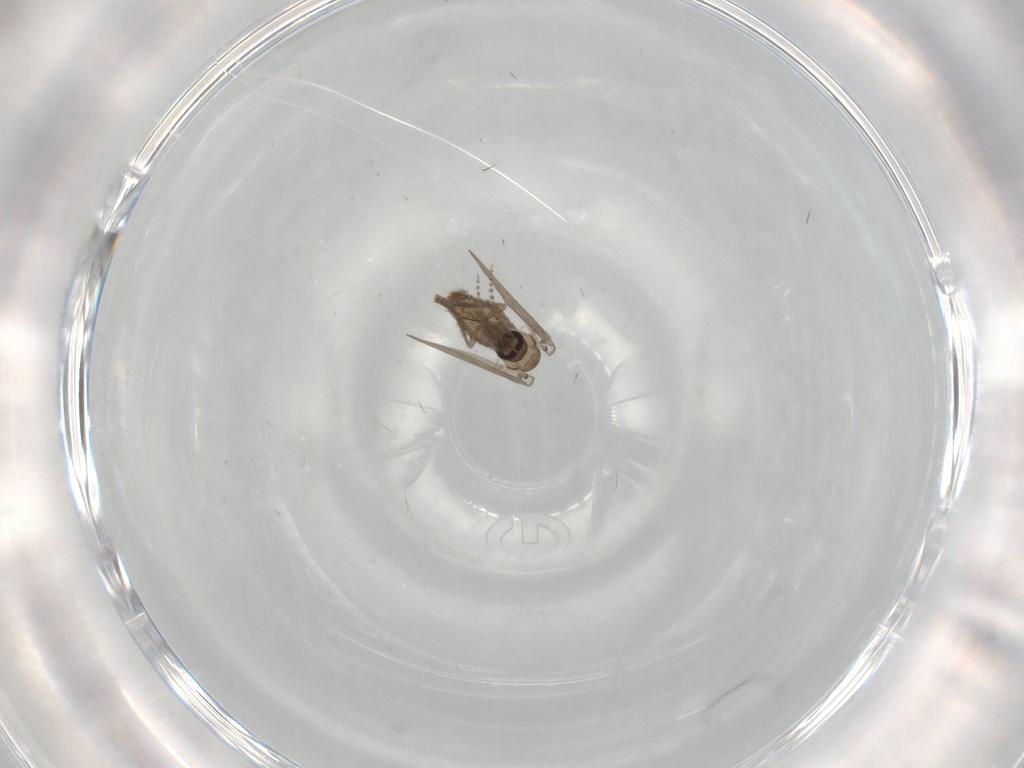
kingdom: Animalia
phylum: Arthropoda
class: Insecta
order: Diptera
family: Psychodidae
